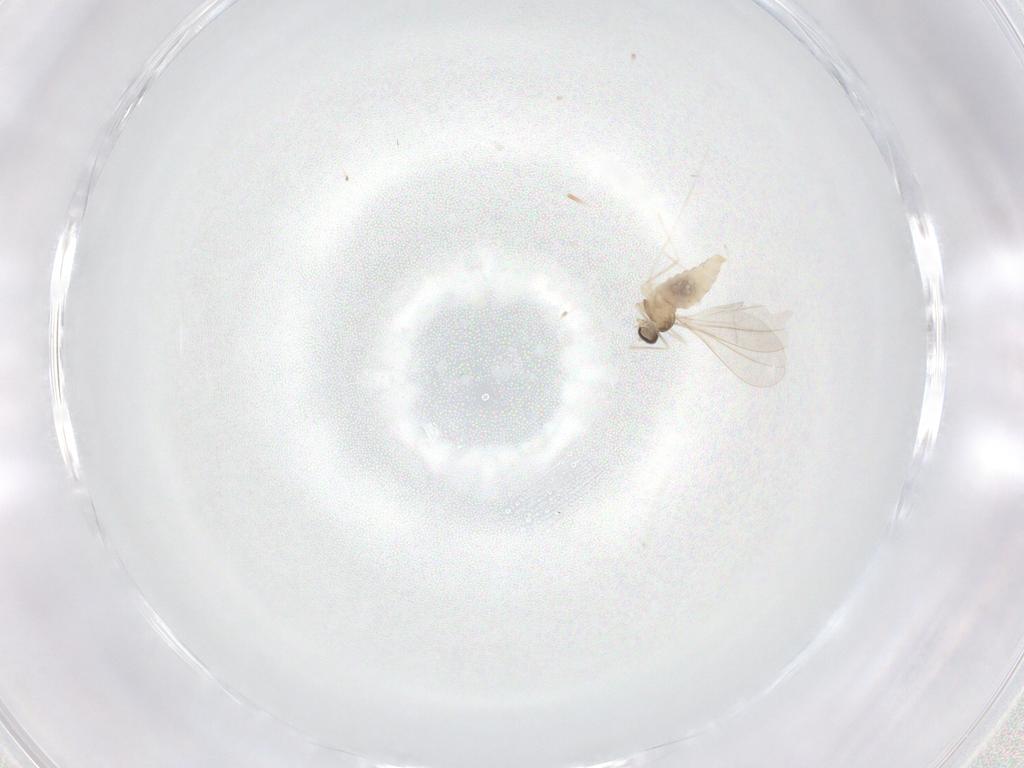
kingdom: Animalia
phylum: Arthropoda
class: Insecta
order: Diptera
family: Cecidomyiidae
